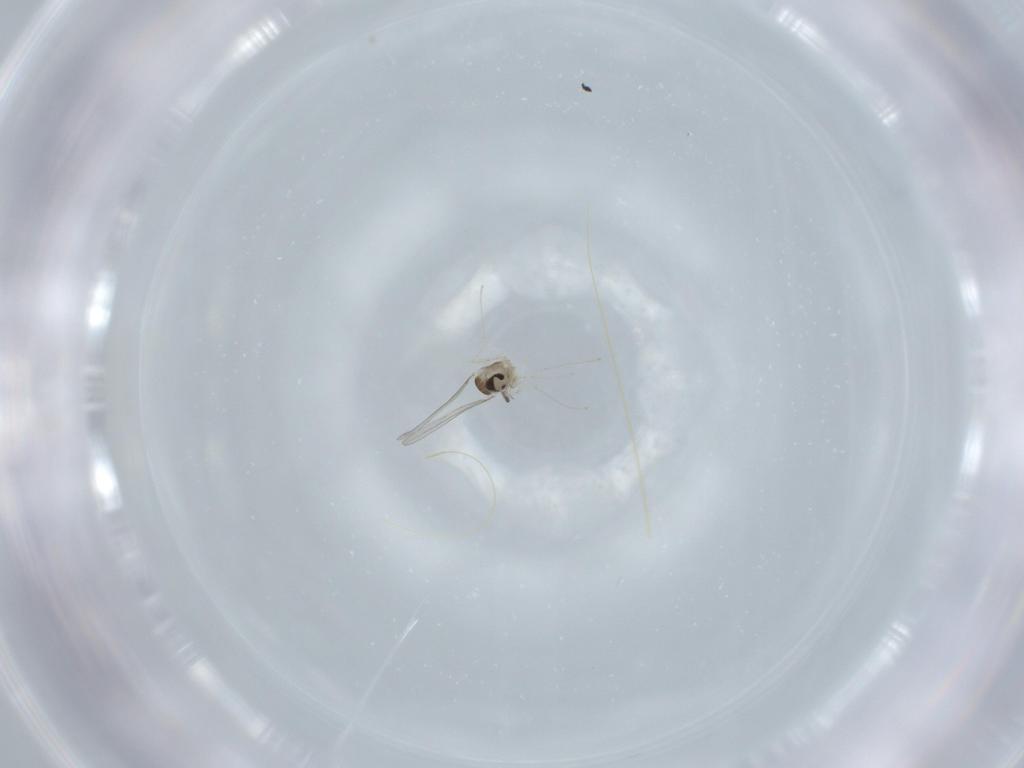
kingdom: Animalia
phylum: Arthropoda
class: Insecta
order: Diptera
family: Cecidomyiidae
